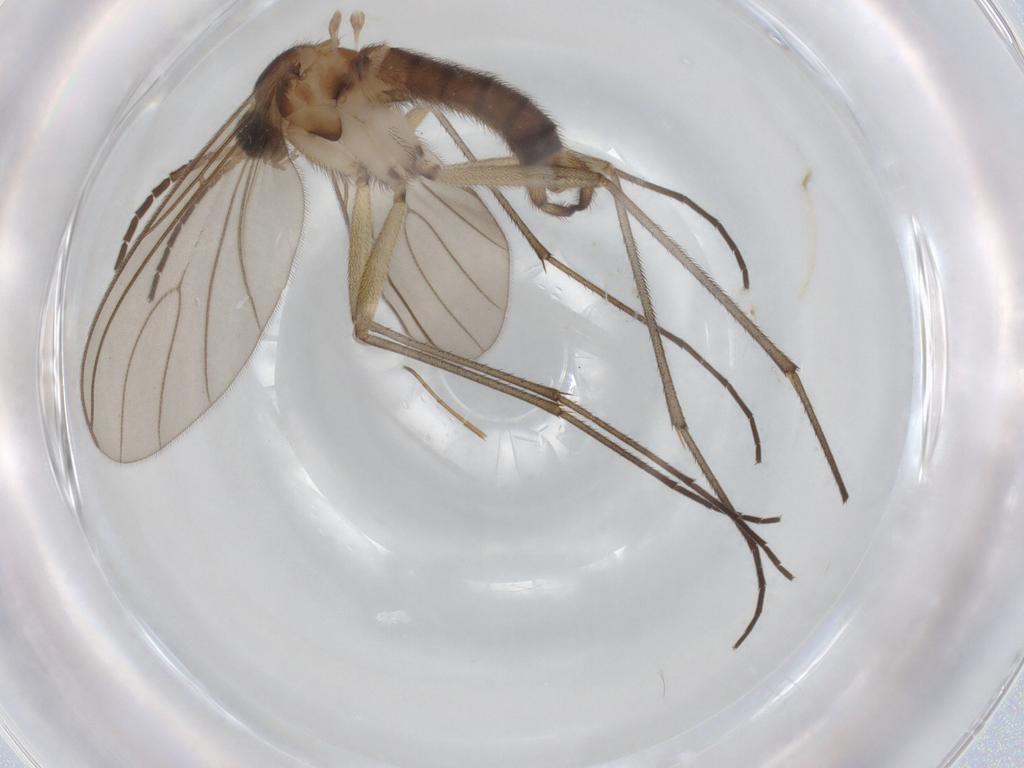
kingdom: Animalia
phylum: Arthropoda
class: Insecta
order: Diptera
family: Sciaridae
